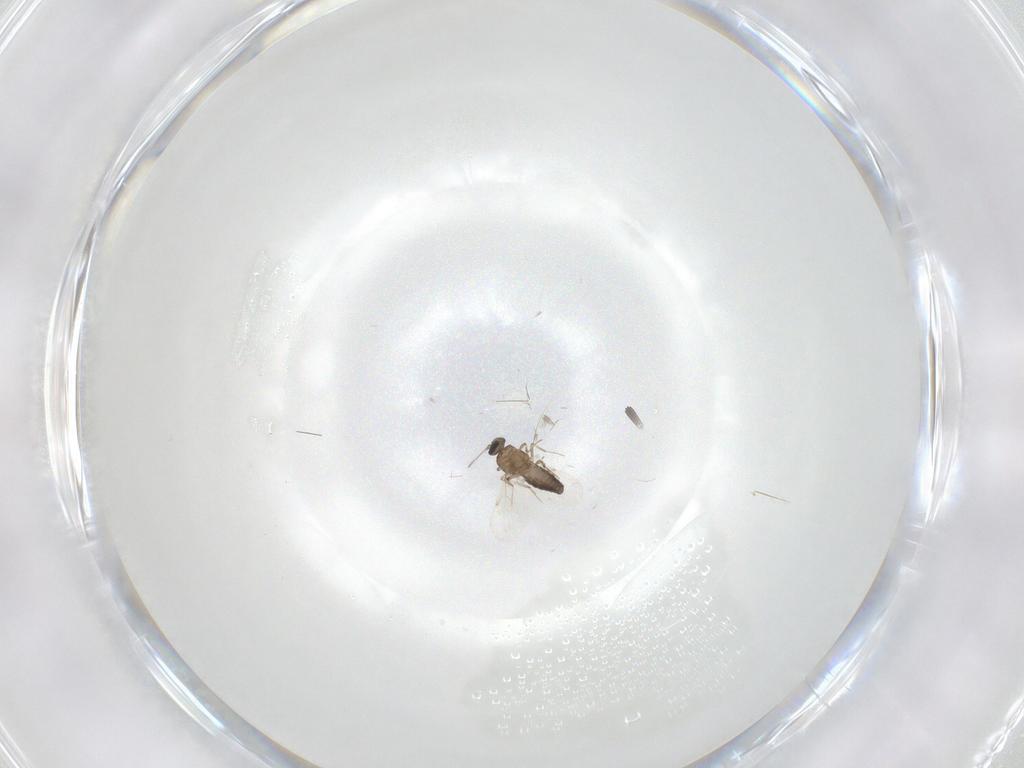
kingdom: Animalia
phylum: Arthropoda
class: Insecta
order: Diptera
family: Ceratopogonidae
